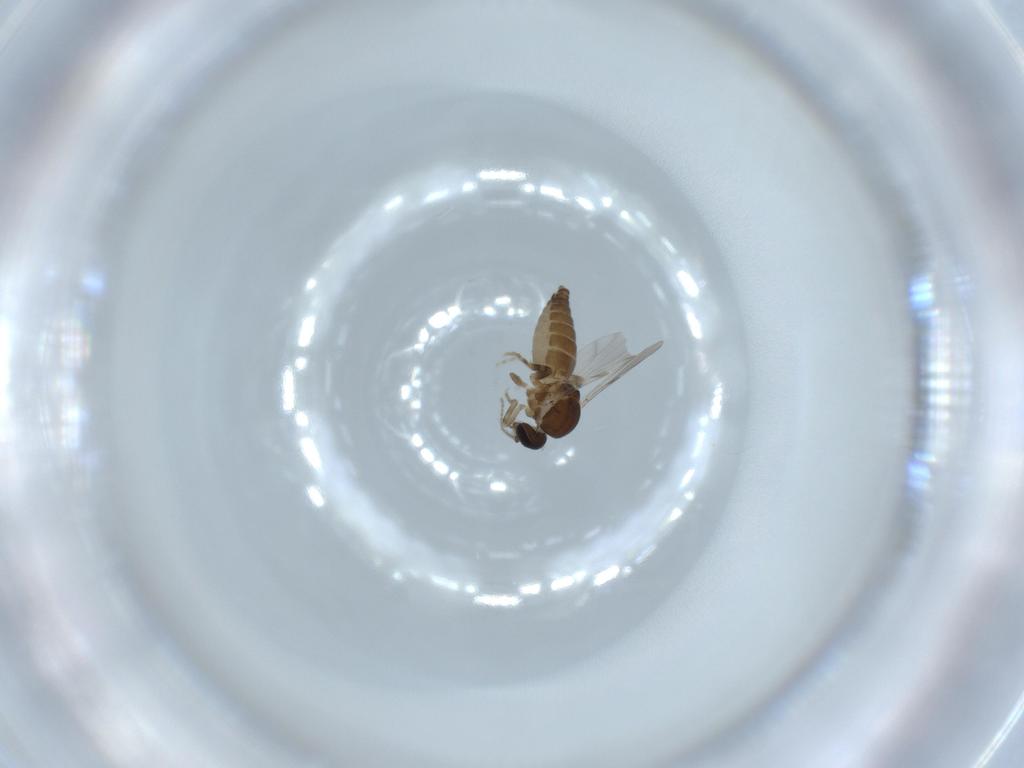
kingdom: Animalia
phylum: Arthropoda
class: Insecta
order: Diptera
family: Ceratopogonidae
